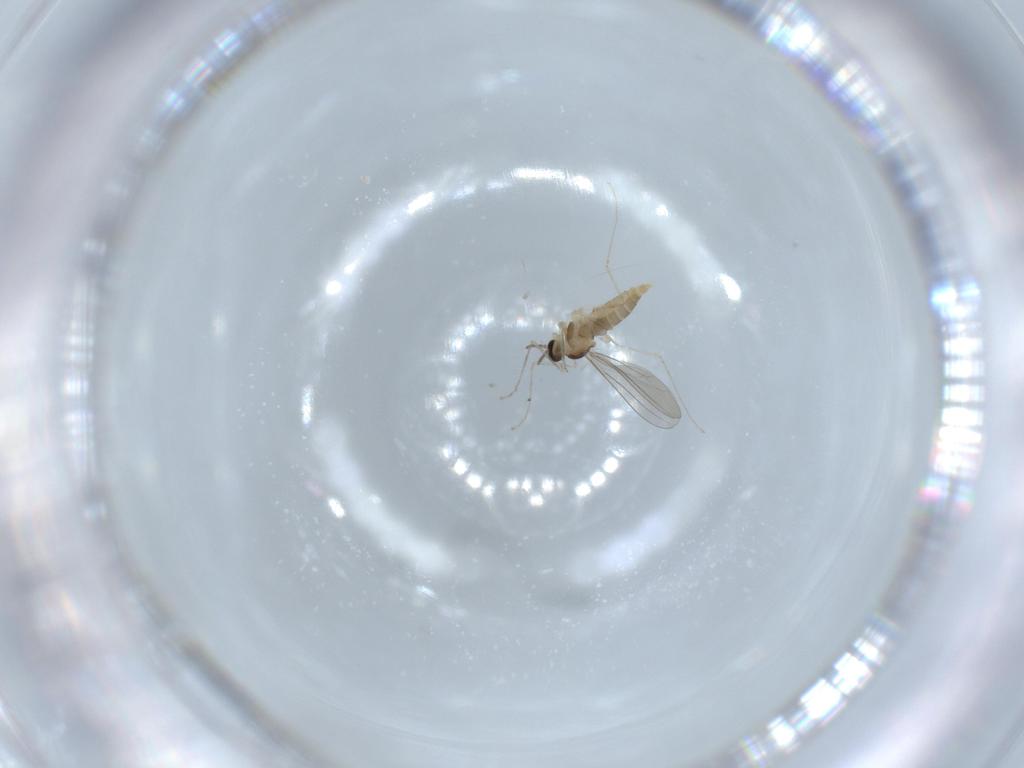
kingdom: Animalia
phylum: Arthropoda
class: Insecta
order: Diptera
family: Cecidomyiidae
